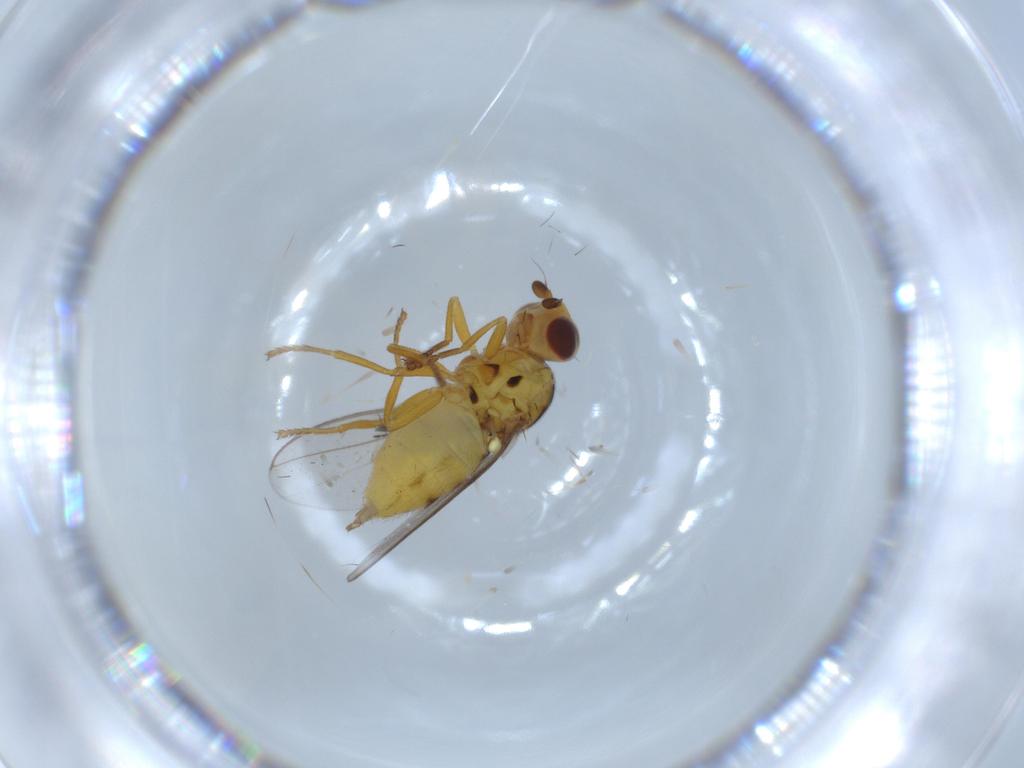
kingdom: Animalia
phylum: Arthropoda
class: Insecta
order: Diptera
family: Chloropidae
